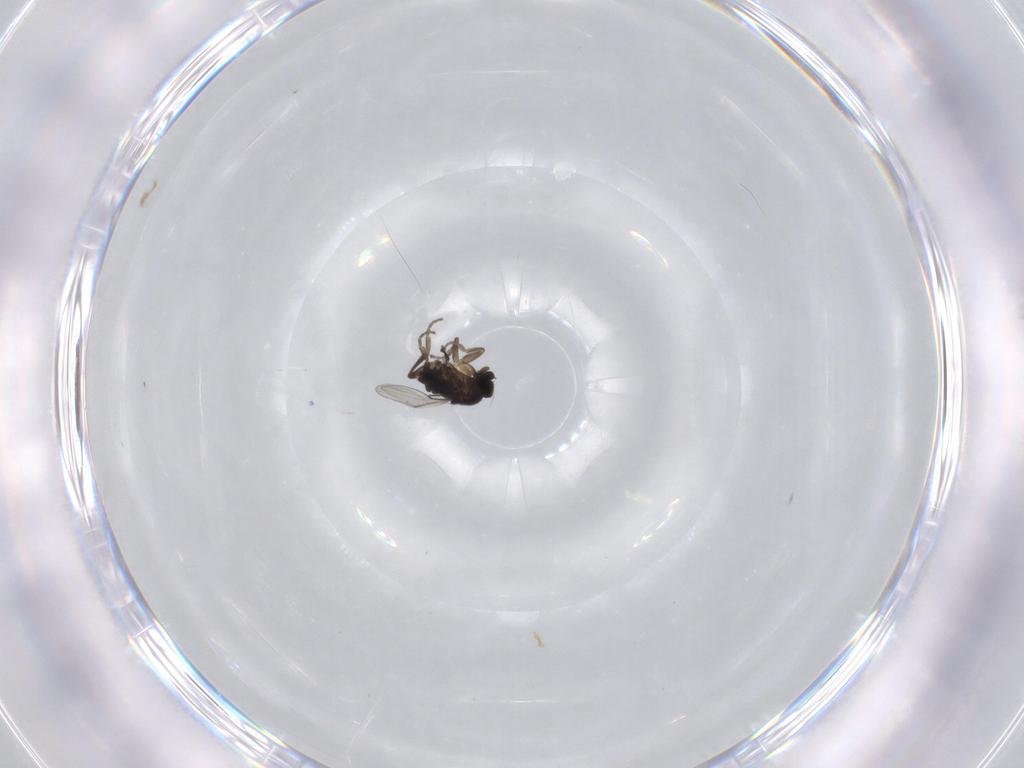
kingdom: Animalia
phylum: Arthropoda
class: Insecta
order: Diptera
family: Phoridae
